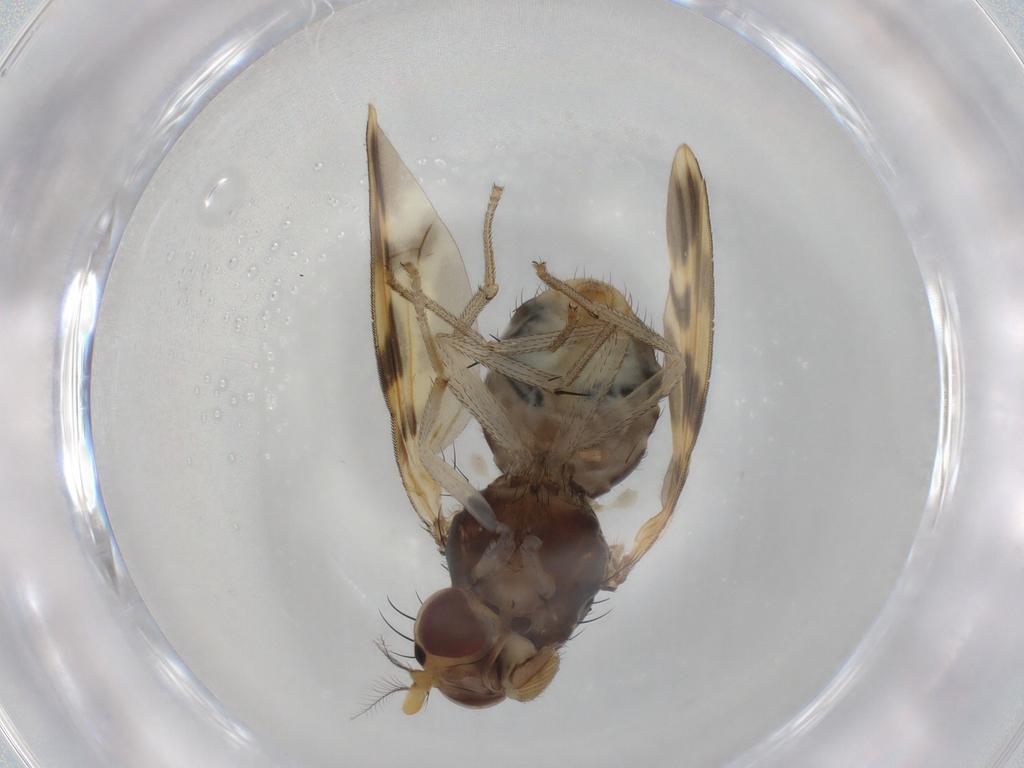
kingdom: Animalia
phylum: Arthropoda
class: Insecta
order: Diptera
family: Lauxaniidae
